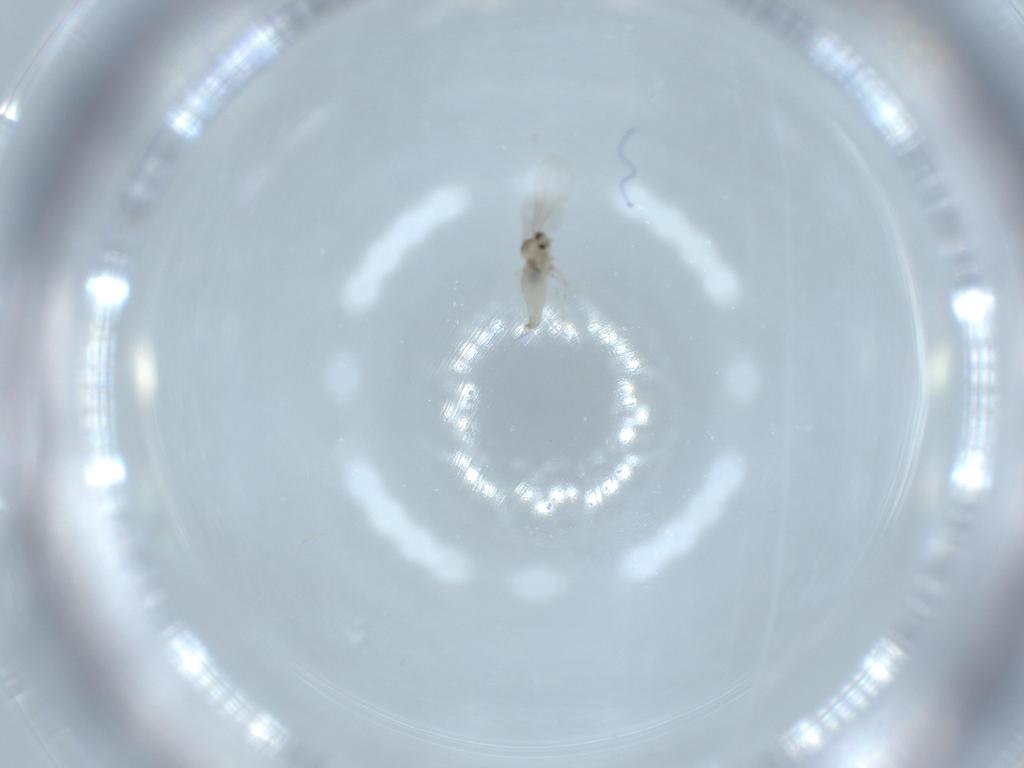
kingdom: Animalia
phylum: Arthropoda
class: Insecta
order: Diptera
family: Cecidomyiidae
